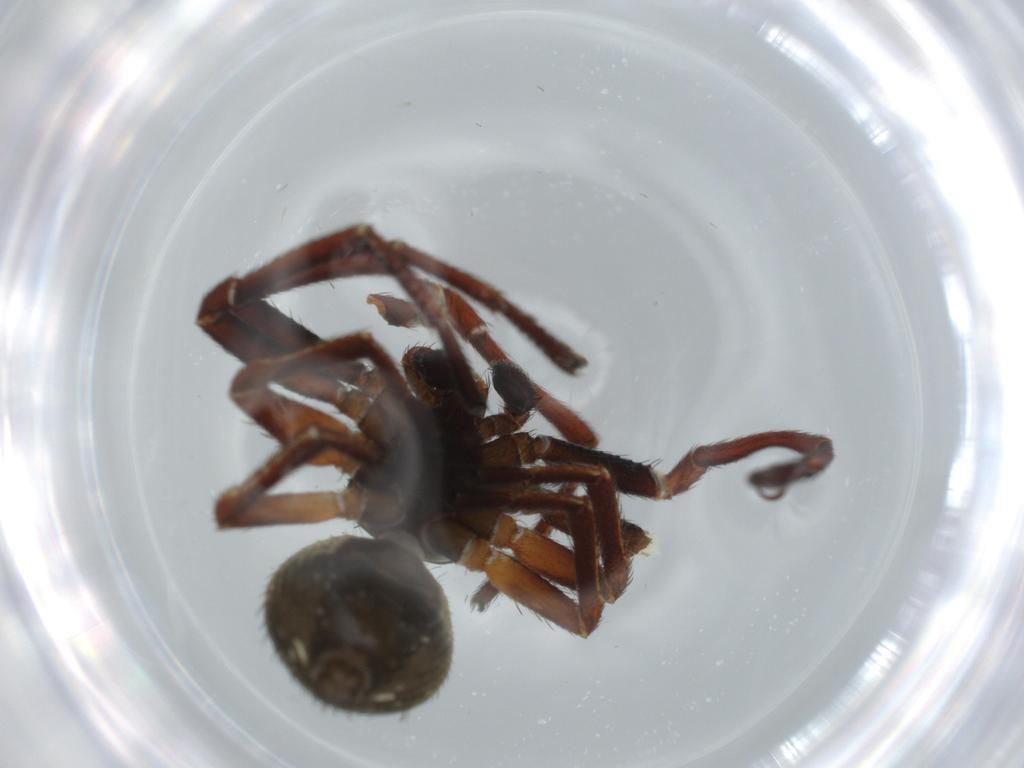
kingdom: Animalia
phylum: Arthropoda
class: Arachnida
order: Araneae
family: Thomisidae
